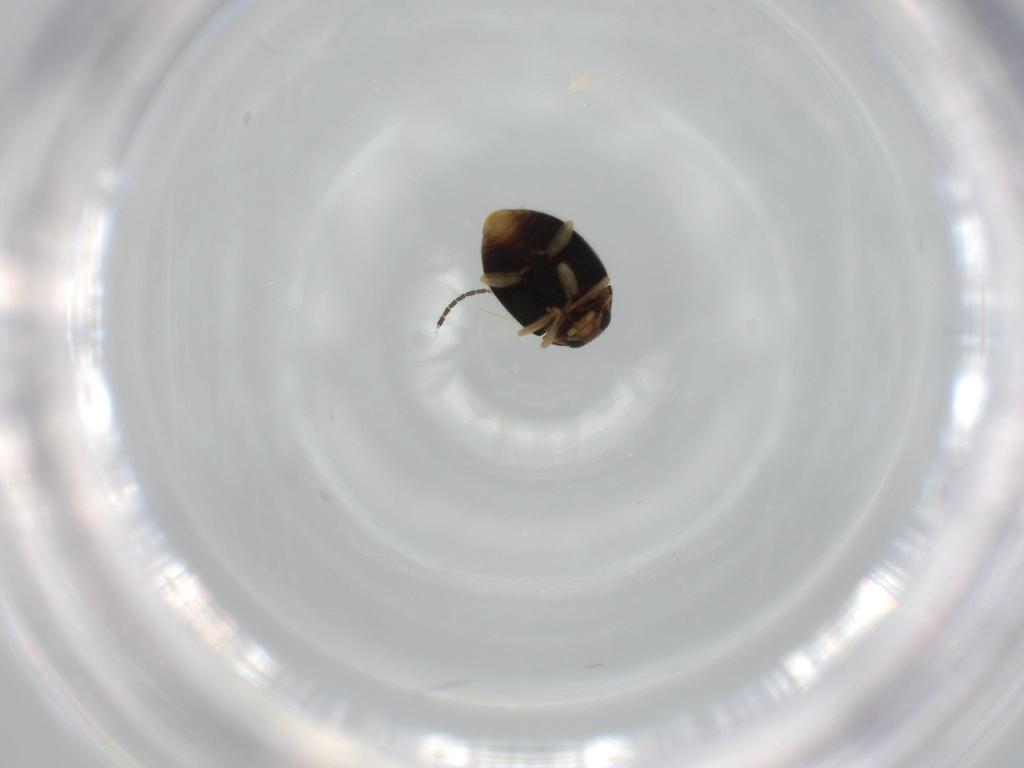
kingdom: Animalia
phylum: Arthropoda
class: Insecta
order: Coleoptera
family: Coccinellidae
